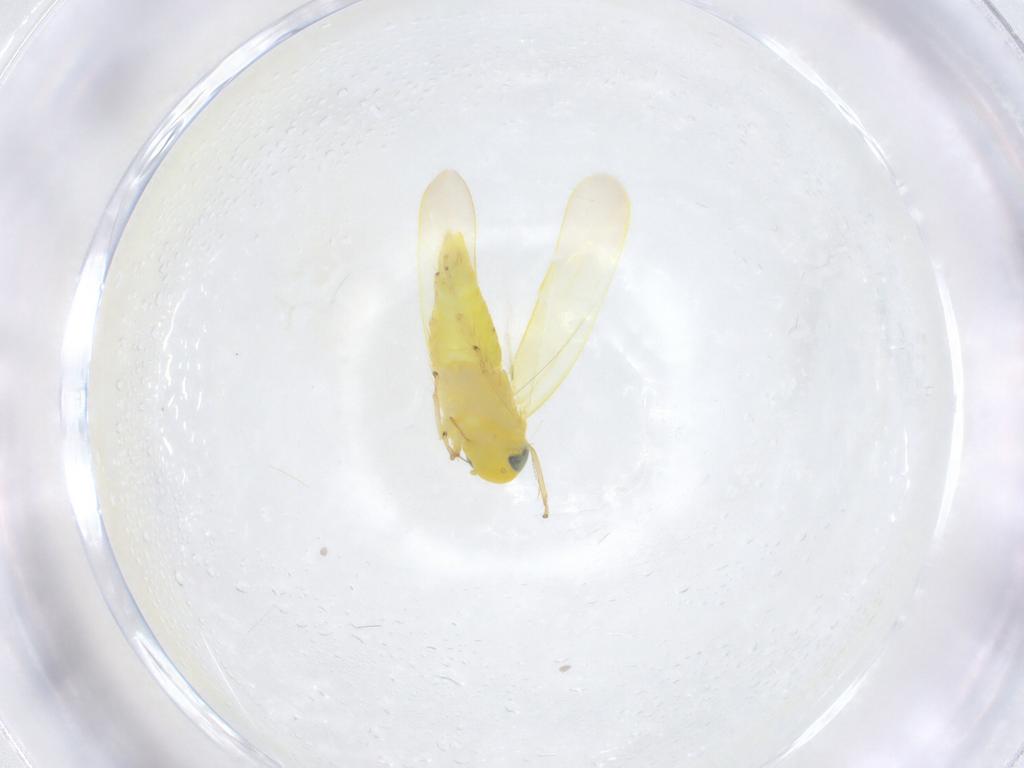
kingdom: Animalia
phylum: Arthropoda
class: Insecta
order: Hemiptera
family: Cicadellidae
